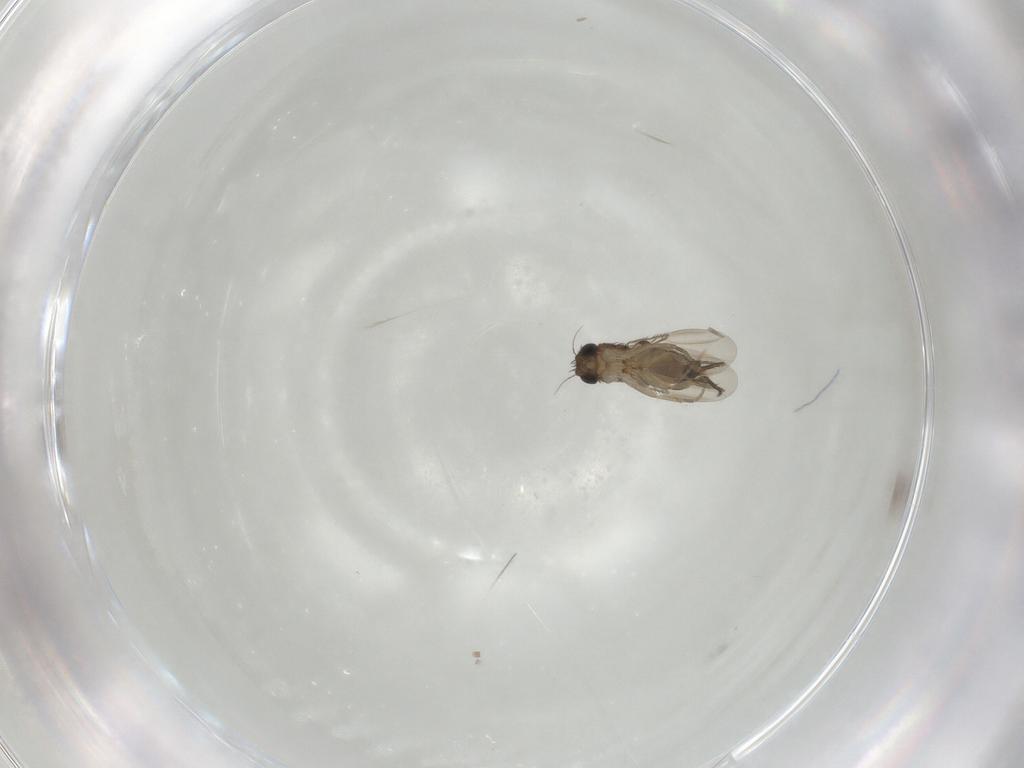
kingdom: Animalia
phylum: Arthropoda
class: Insecta
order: Diptera
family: Phoridae
